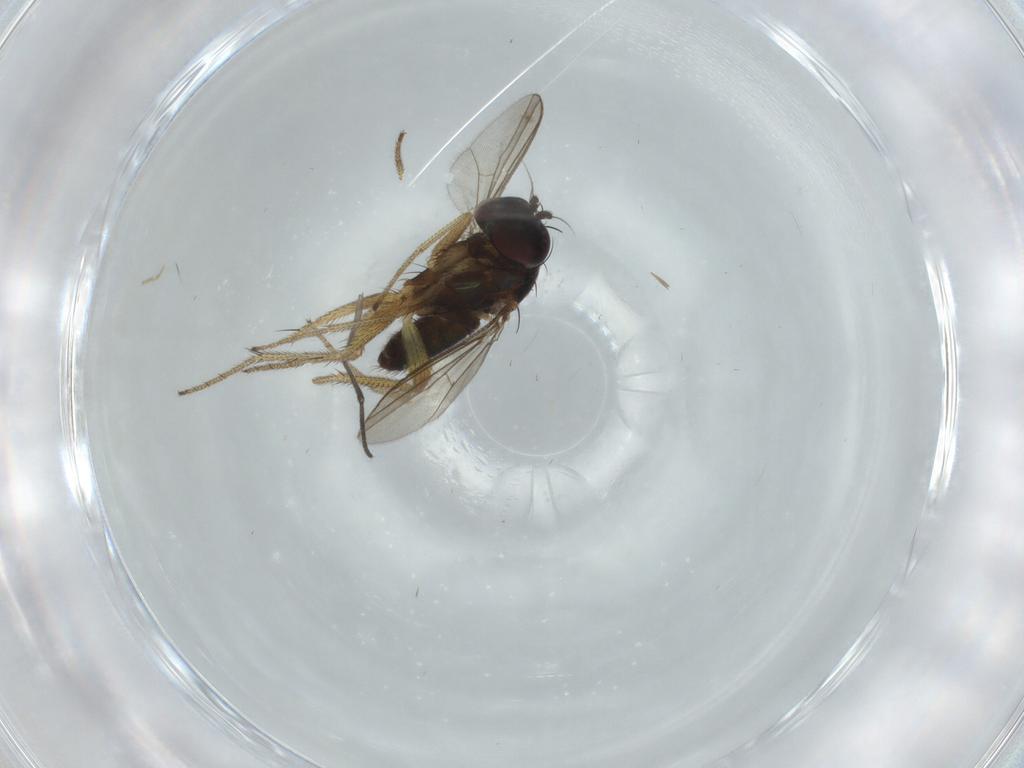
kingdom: Animalia
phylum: Arthropoda
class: Insecta
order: Diptera
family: Dolichopodidae
